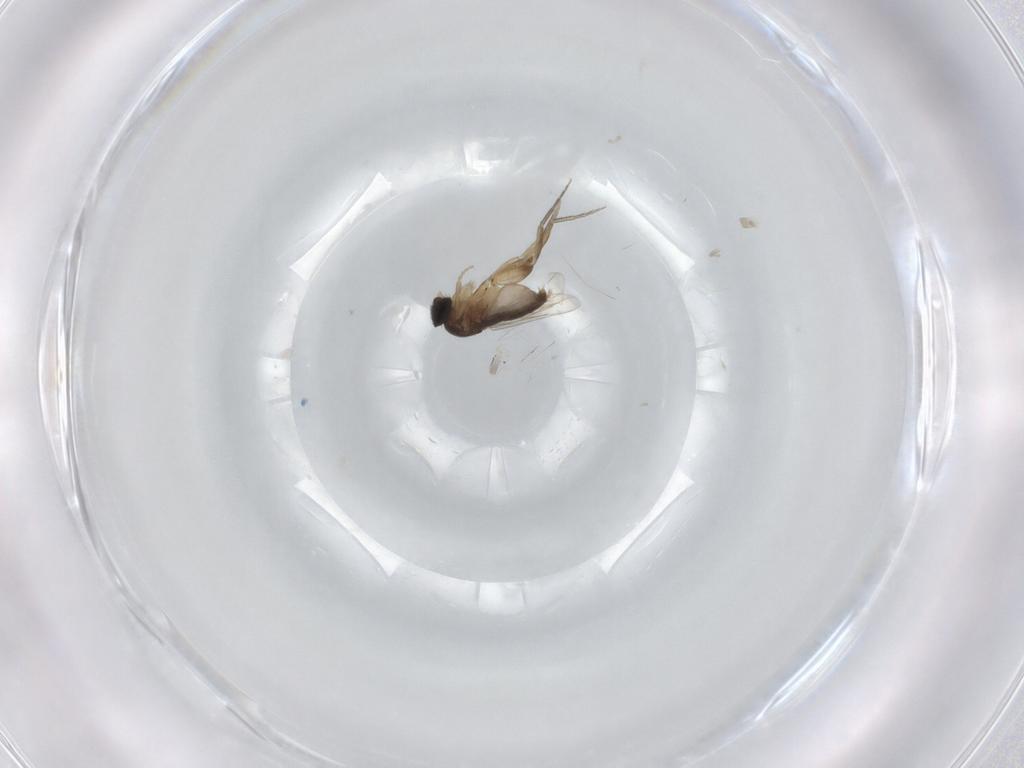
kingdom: Animalia
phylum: Arthropoda
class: Insecta
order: Diptera
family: Phoridae
